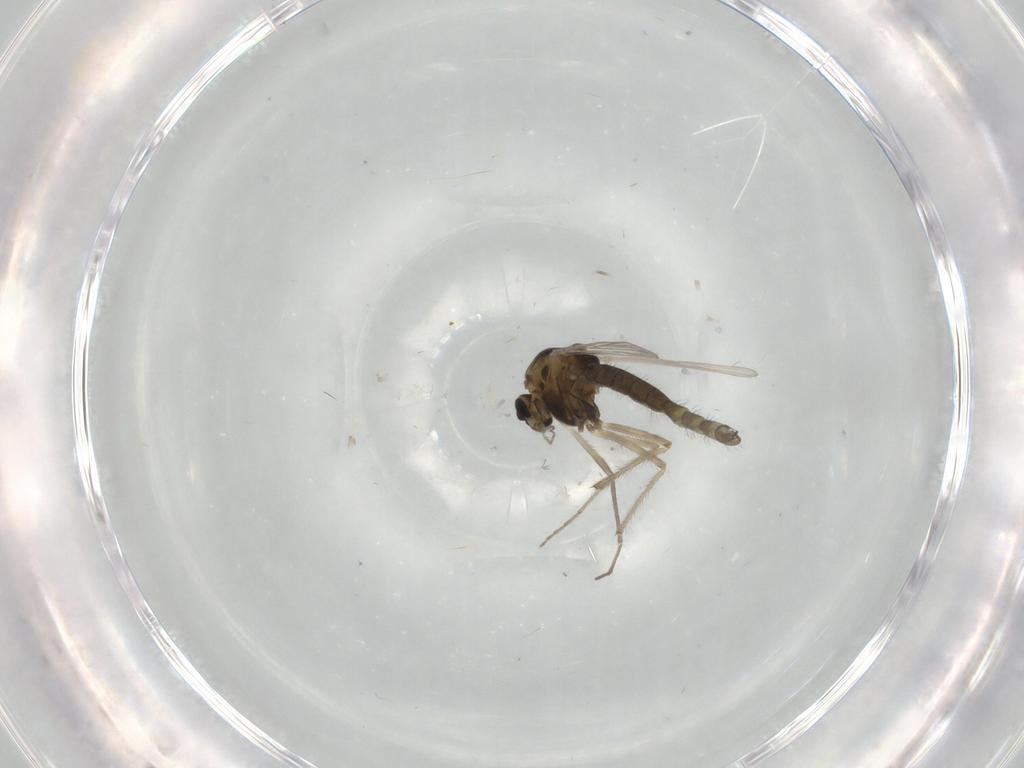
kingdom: Animalia
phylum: Arthropoda
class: Insecta
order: Diptera
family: Chironomidae
